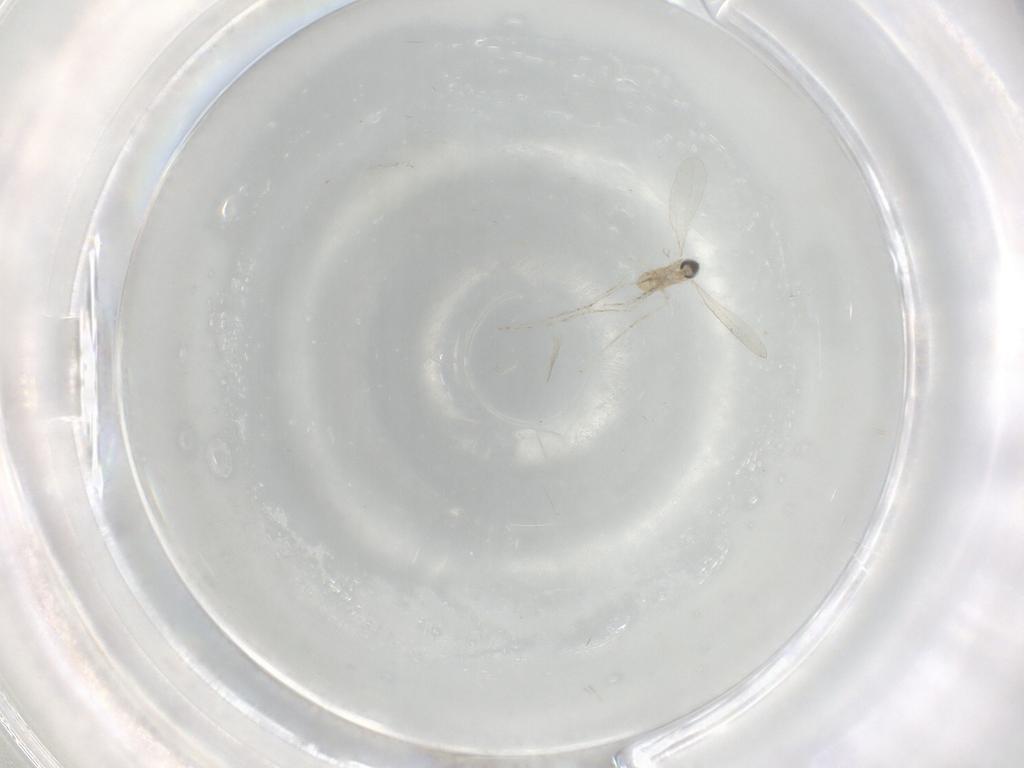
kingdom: Animalia
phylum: Arthropoda
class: Insecta
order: Diptera
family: Cecidomyiidae
